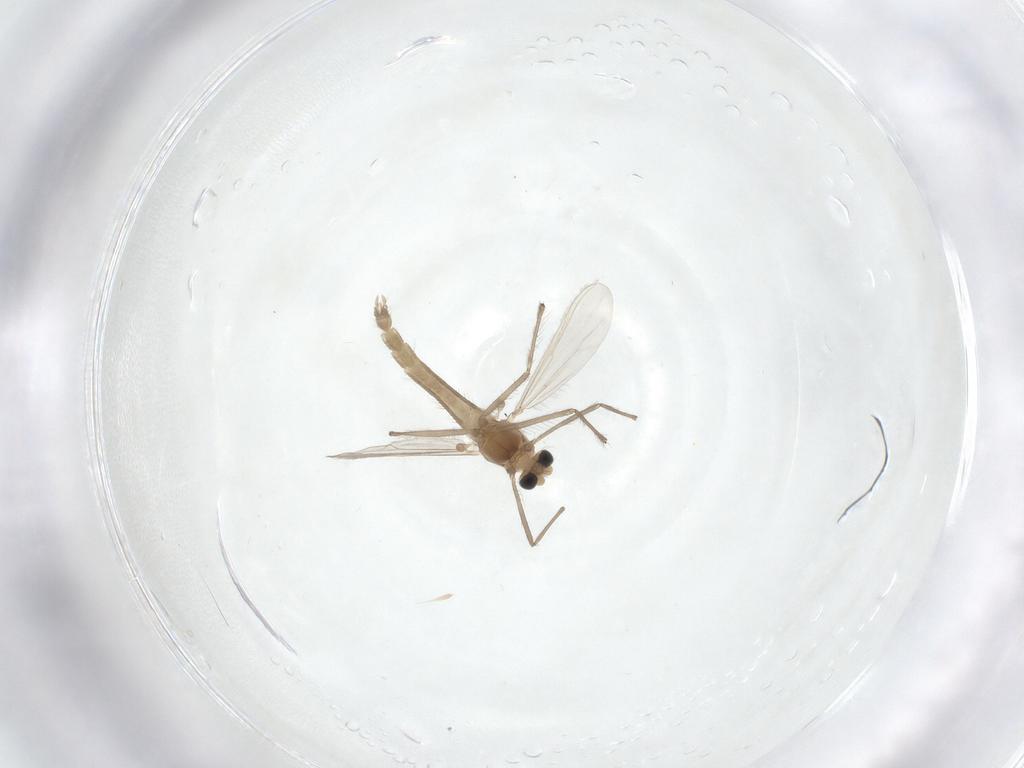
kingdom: Animalia
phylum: Arthropoda
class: Insecta
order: Diptera
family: Chironomidae
